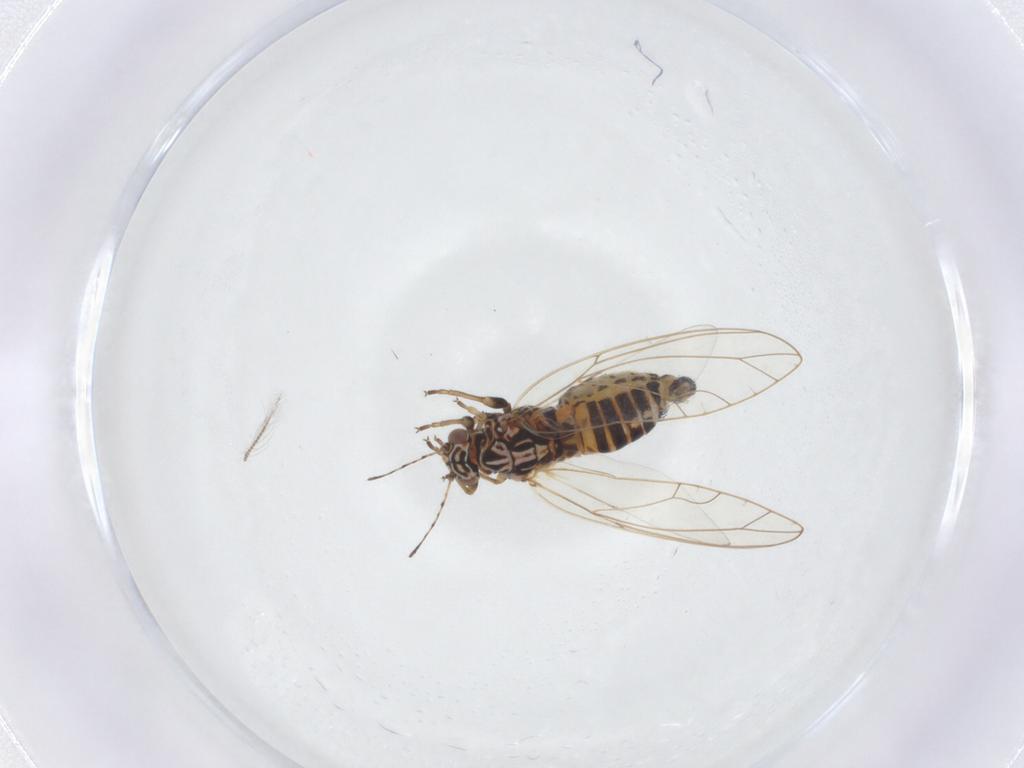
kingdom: Animalia
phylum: Arthropoda
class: Insecta
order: Hemiptera
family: Triozidae
